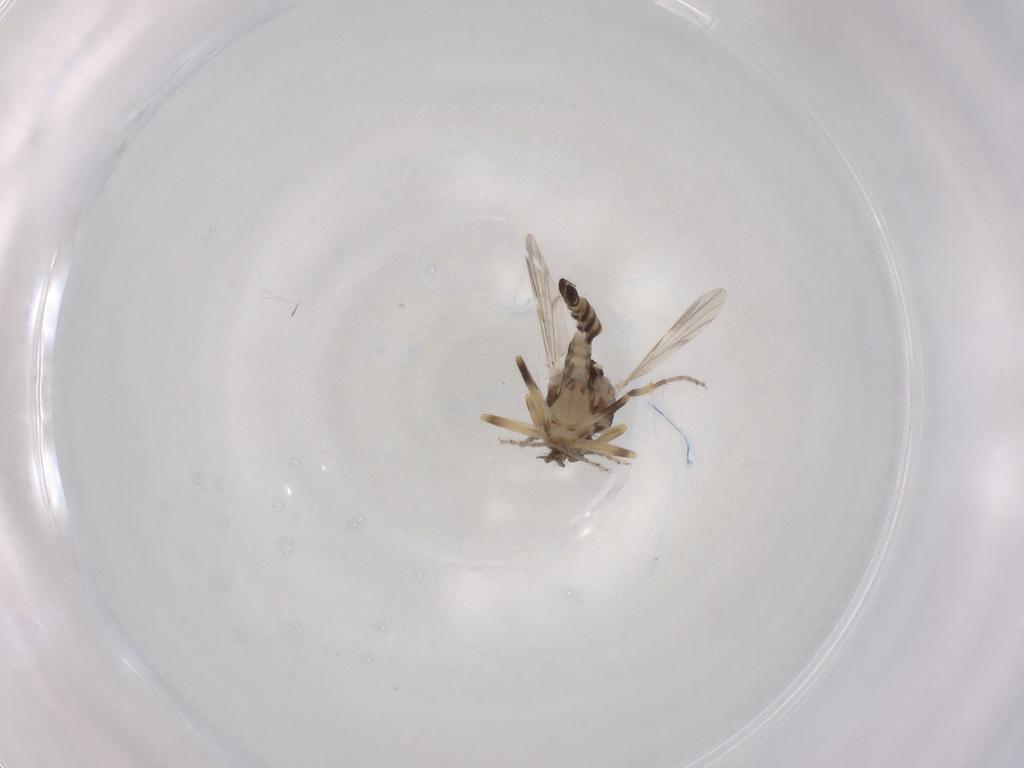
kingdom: Animalia
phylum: Arthropoda
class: Insecta
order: Diptera
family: Ceratopogonidae
